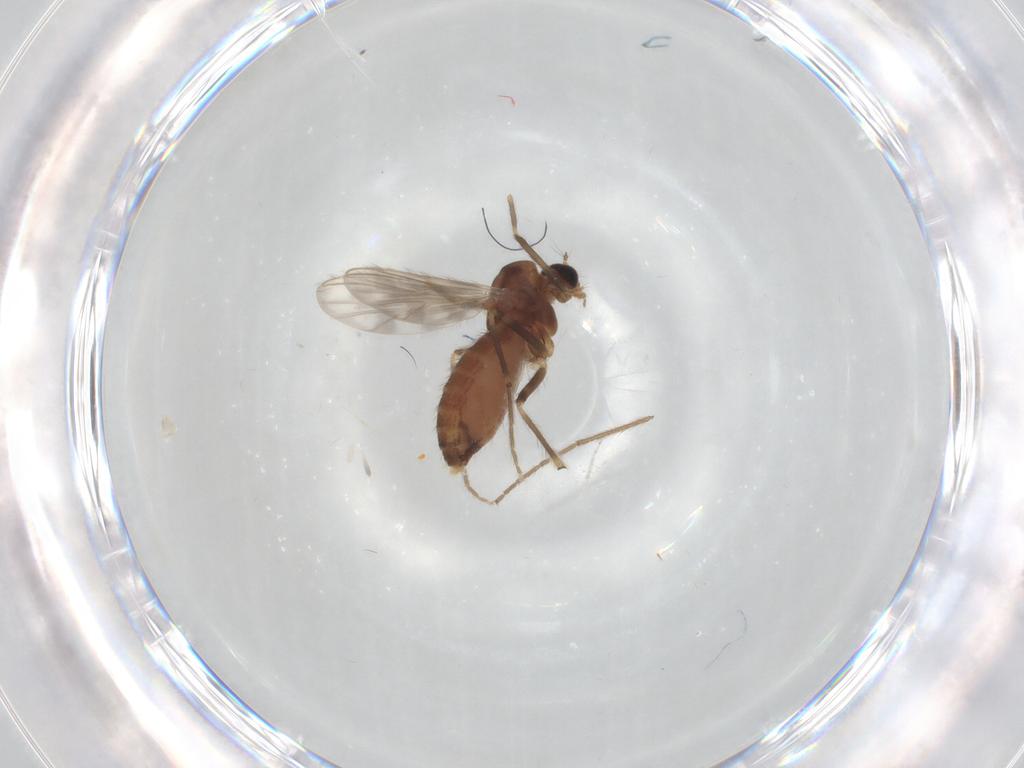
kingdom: Animalia
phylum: Arthropoda
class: Insecta
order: Diptera
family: Chironomidae
